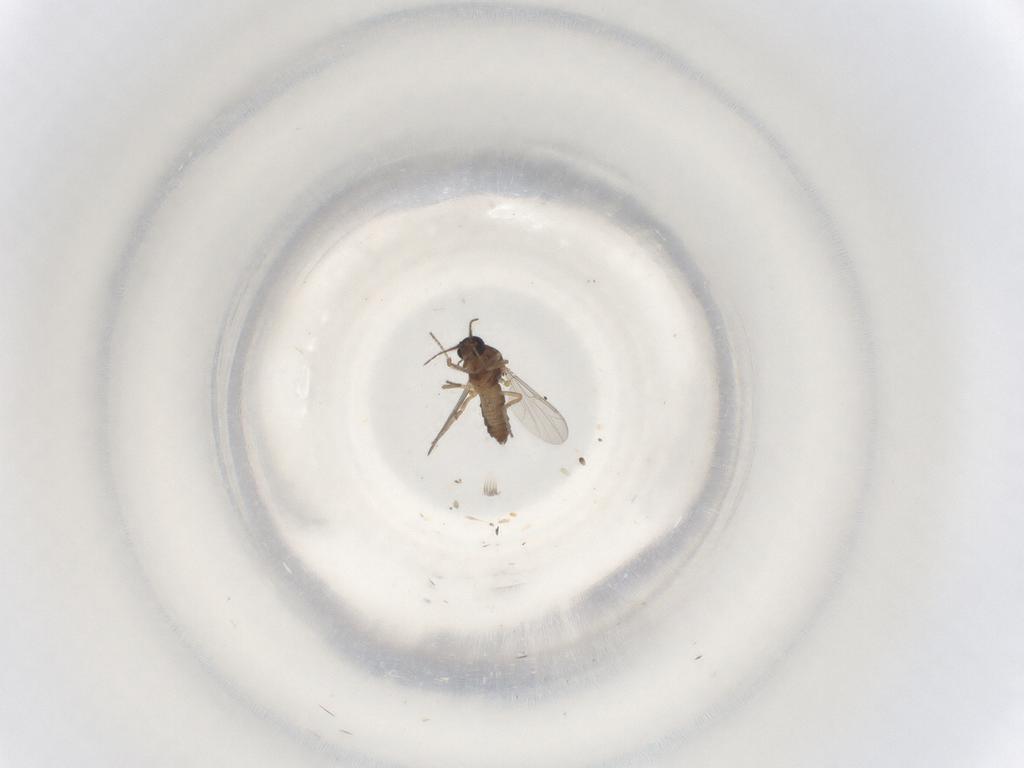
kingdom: Animalia
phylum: Arthropoda
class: Insecta
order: Diptera
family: Ceratopogonidae
